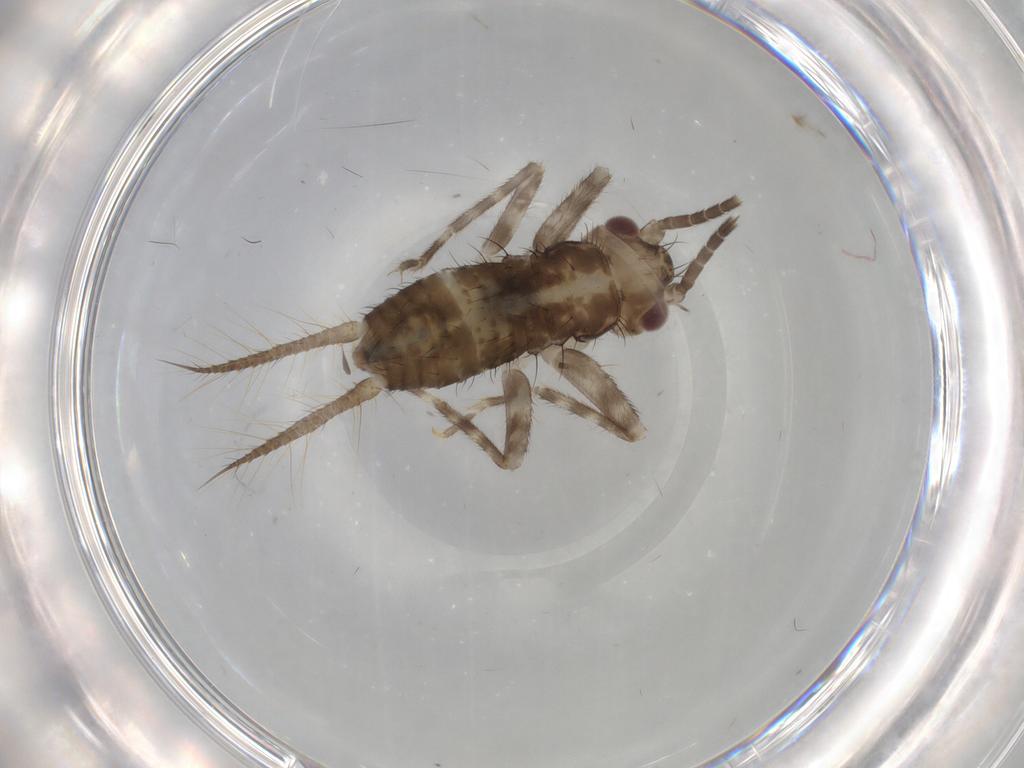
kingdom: Animalia
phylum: Arthropoda
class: Insecta
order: Orthoptera
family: Gryllidae
